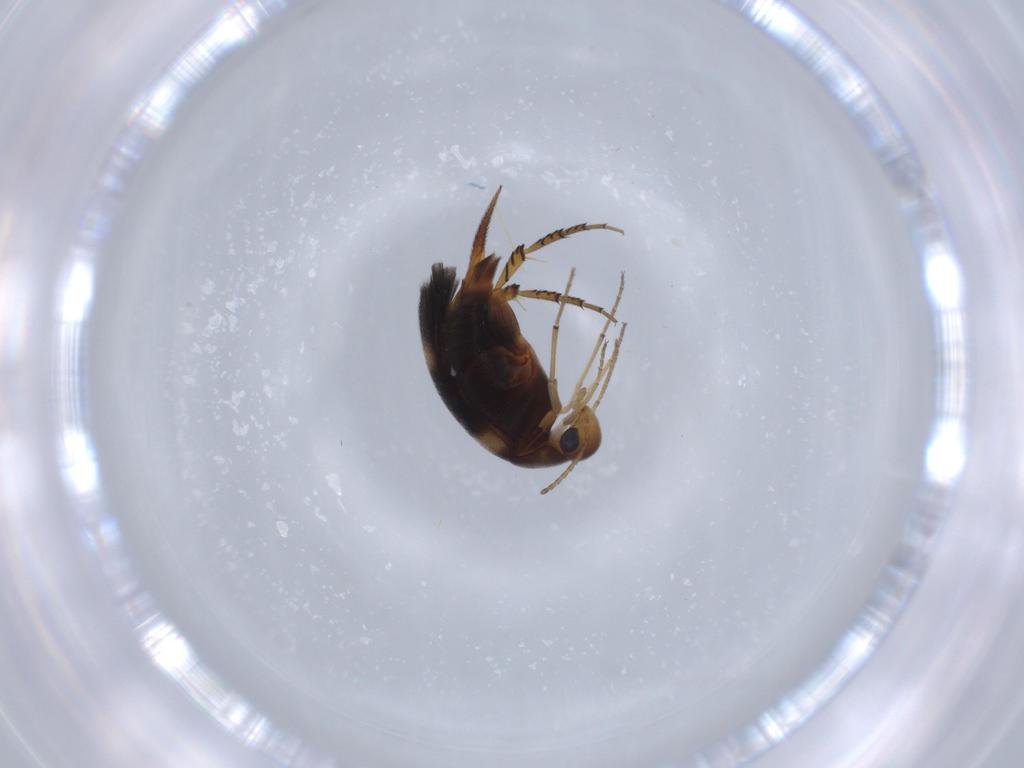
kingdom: Animalia
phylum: Arthropoda
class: Insecta
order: Coleoptera
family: Mordellidae
